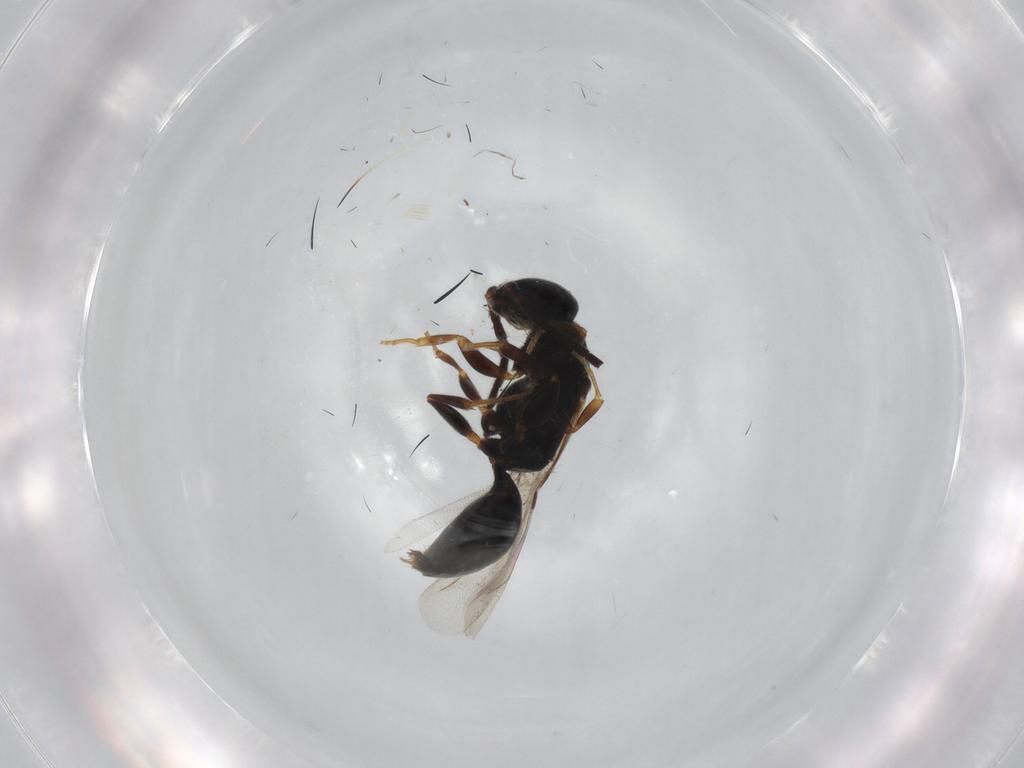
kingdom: Animalia
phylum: Arthropoda
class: Insecta
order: Hymenoptera
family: Bethylidae
